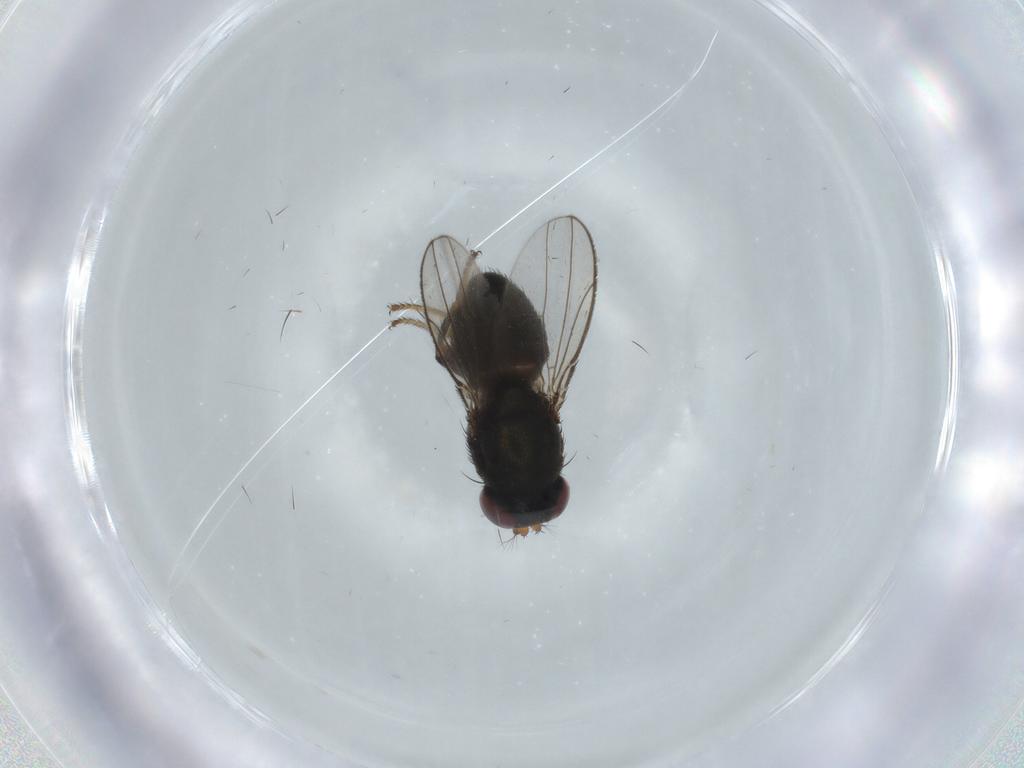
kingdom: Animalia
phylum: Arthropoda
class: Insecta
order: Diptera
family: Ephydridae
